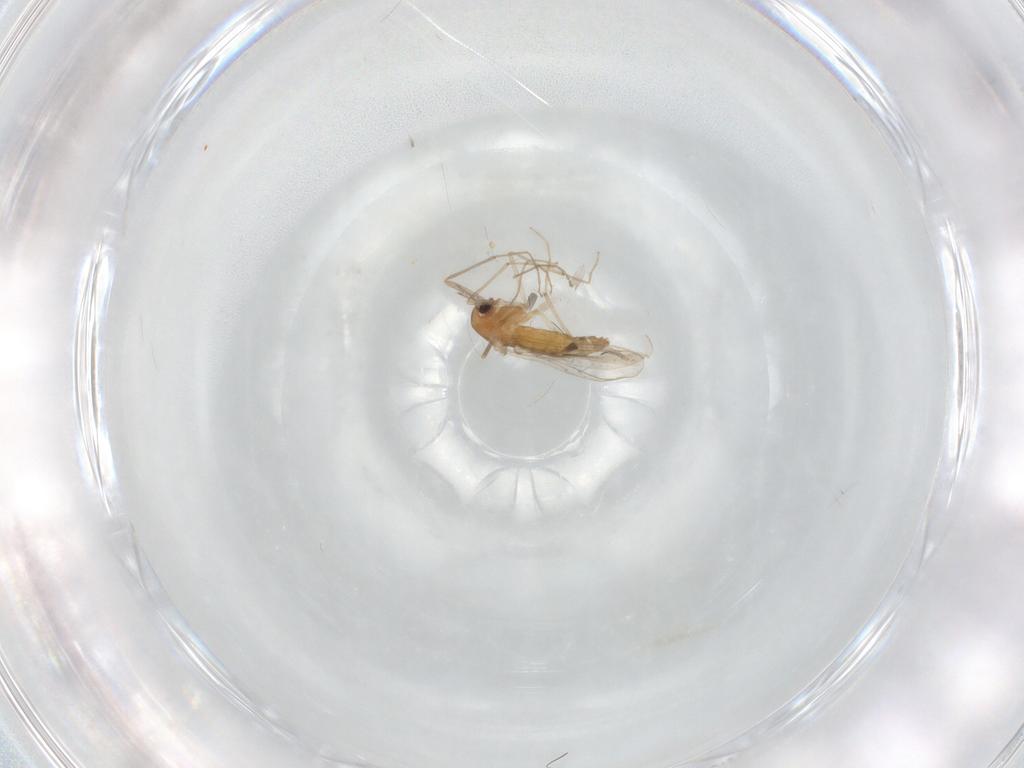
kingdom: Animalia
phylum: Arthropoda
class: Insecta
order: Diptera
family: Chironomidae
